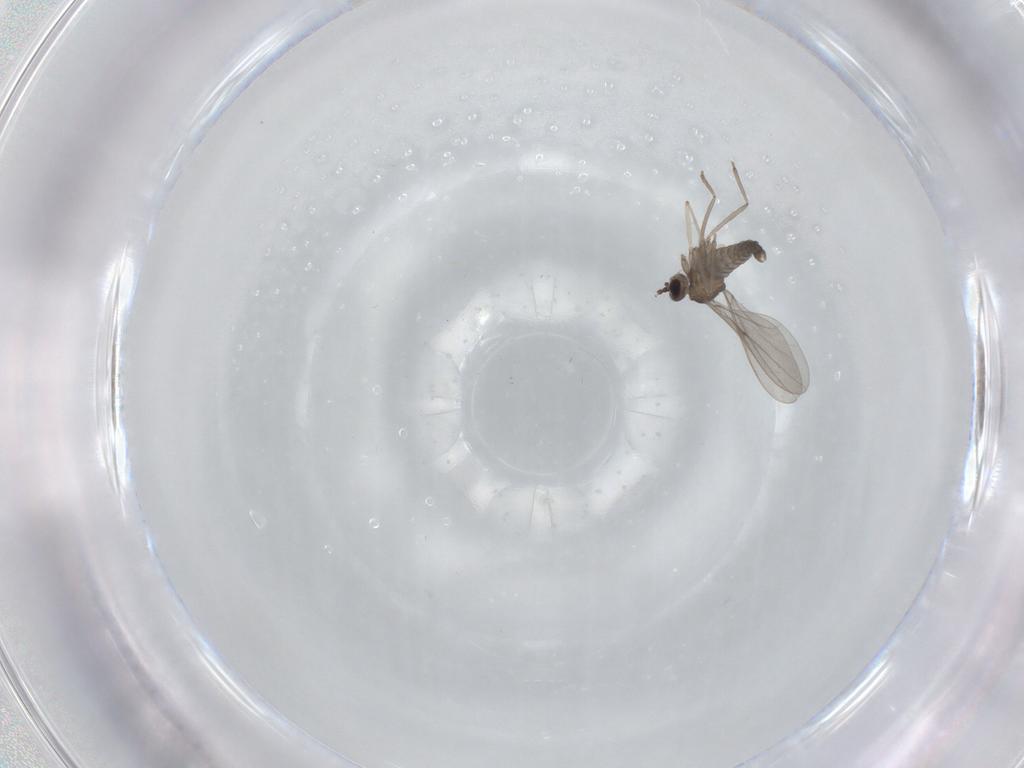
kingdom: Animalia
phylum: Arthropoda
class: Insecta
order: Diptera
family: Cecidomyiidae
